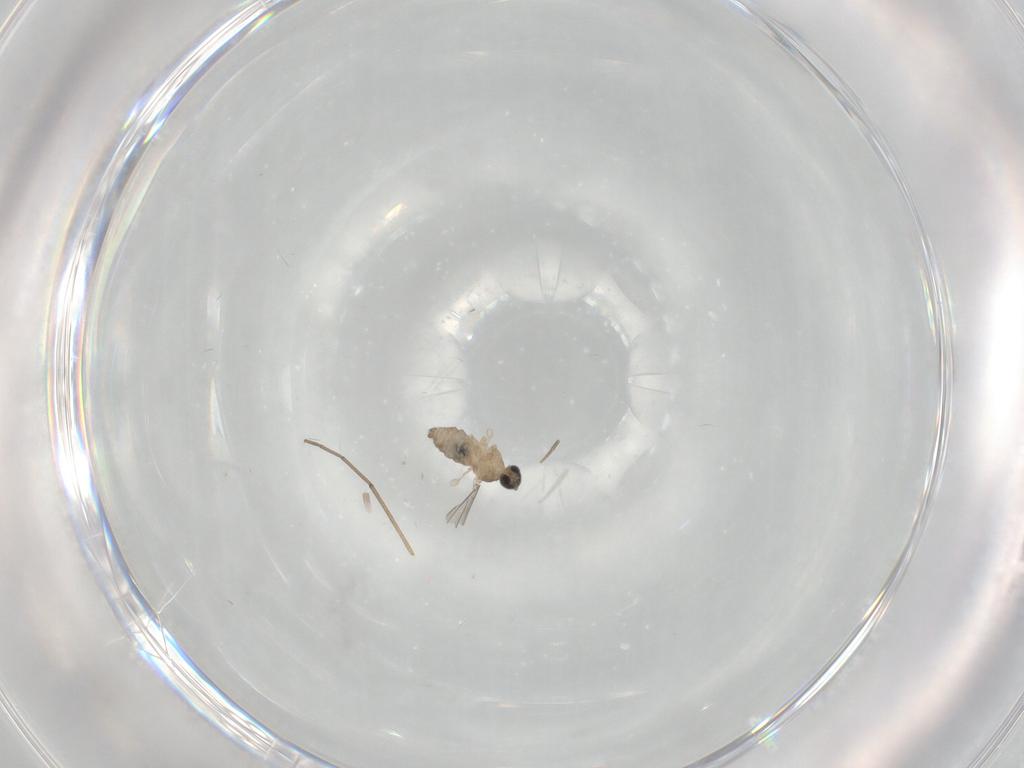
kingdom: Animalia
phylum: Arthropoda
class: Insecta
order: Diptera
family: Cecidomyiidae
